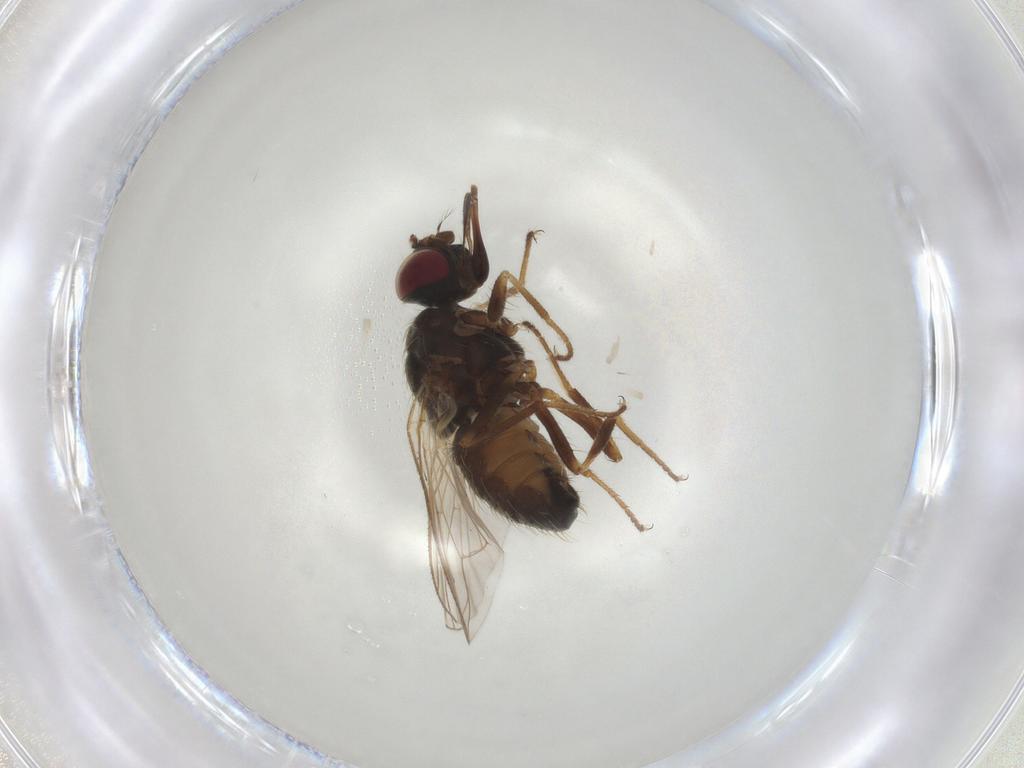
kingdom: Animalia
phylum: Arthropoda
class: Insecta
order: Diptera
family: Muscidae
